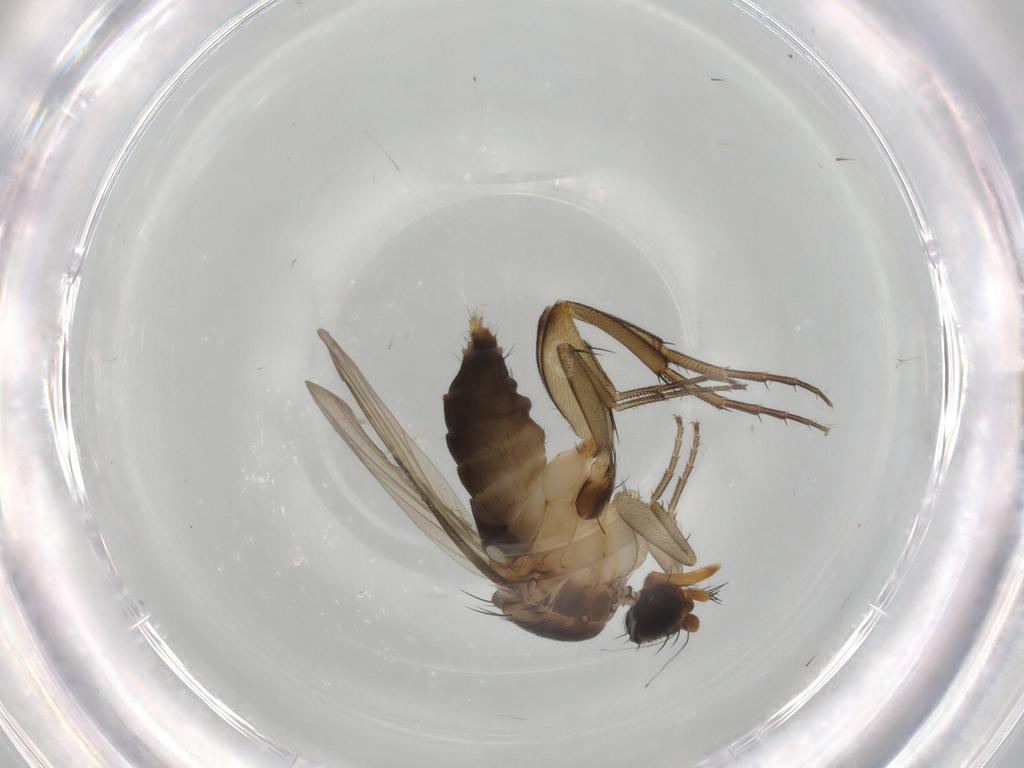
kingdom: Animalia
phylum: Arthropoda
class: Insecta
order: Diptera
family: Phoridae
